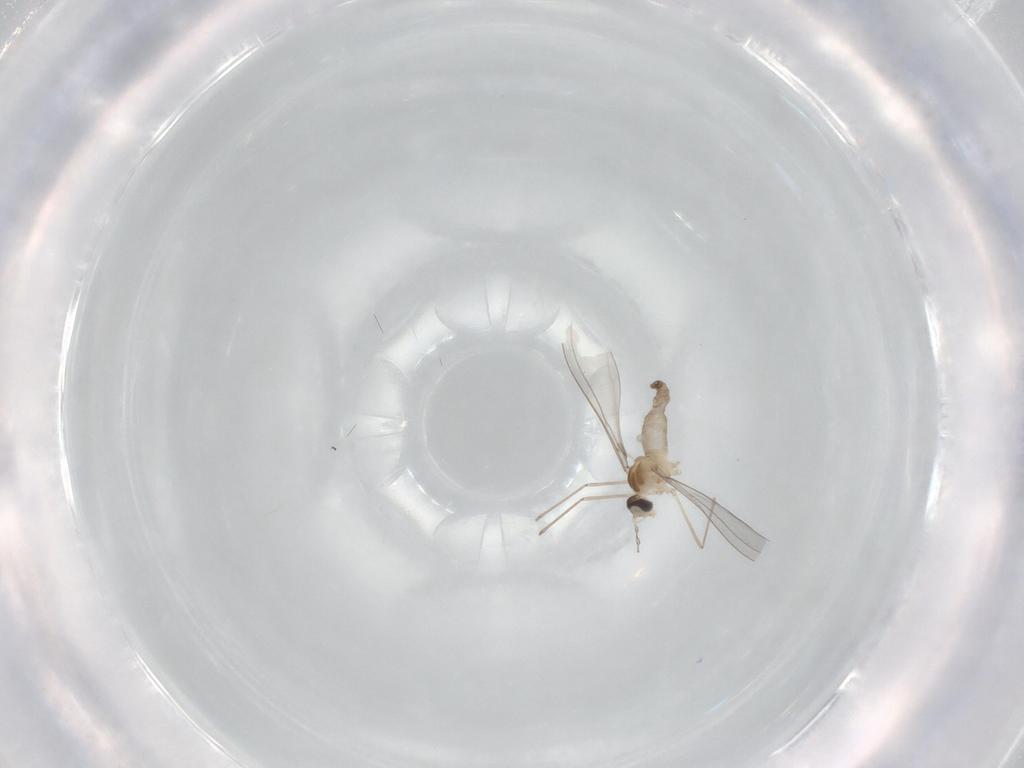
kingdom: Animalia
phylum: Arthropoda
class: Insecta
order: Diptera
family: Cecidomyiidae
